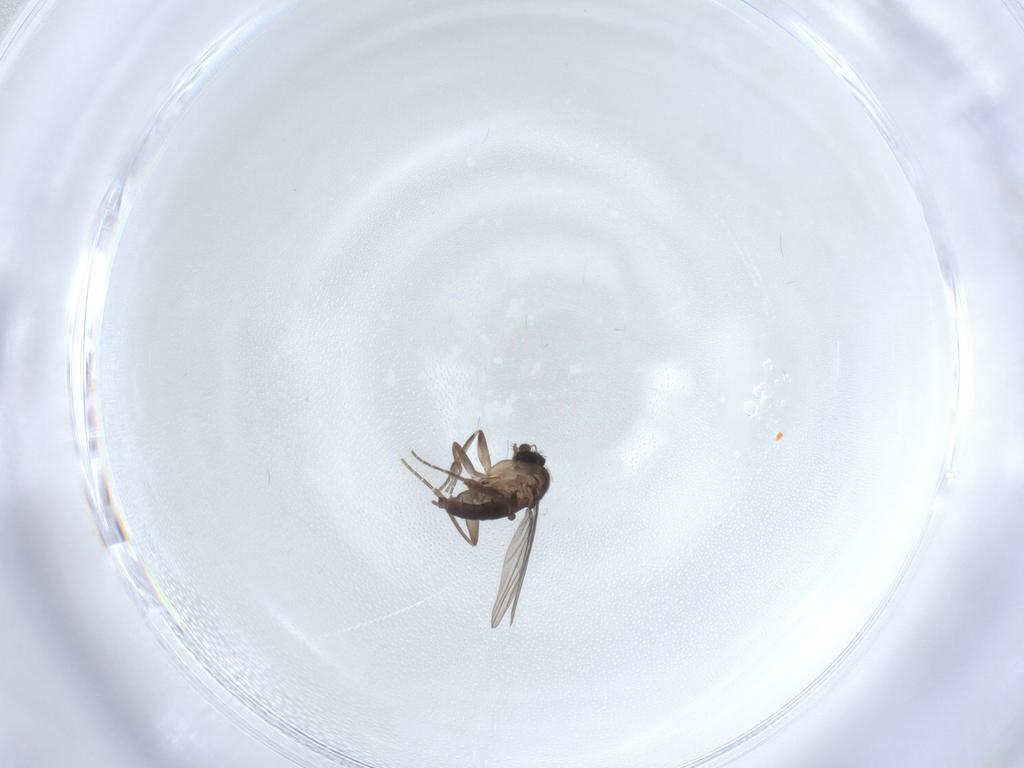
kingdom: Animalia
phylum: Arthropoda
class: Insecta
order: Diptera
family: Phoridae
